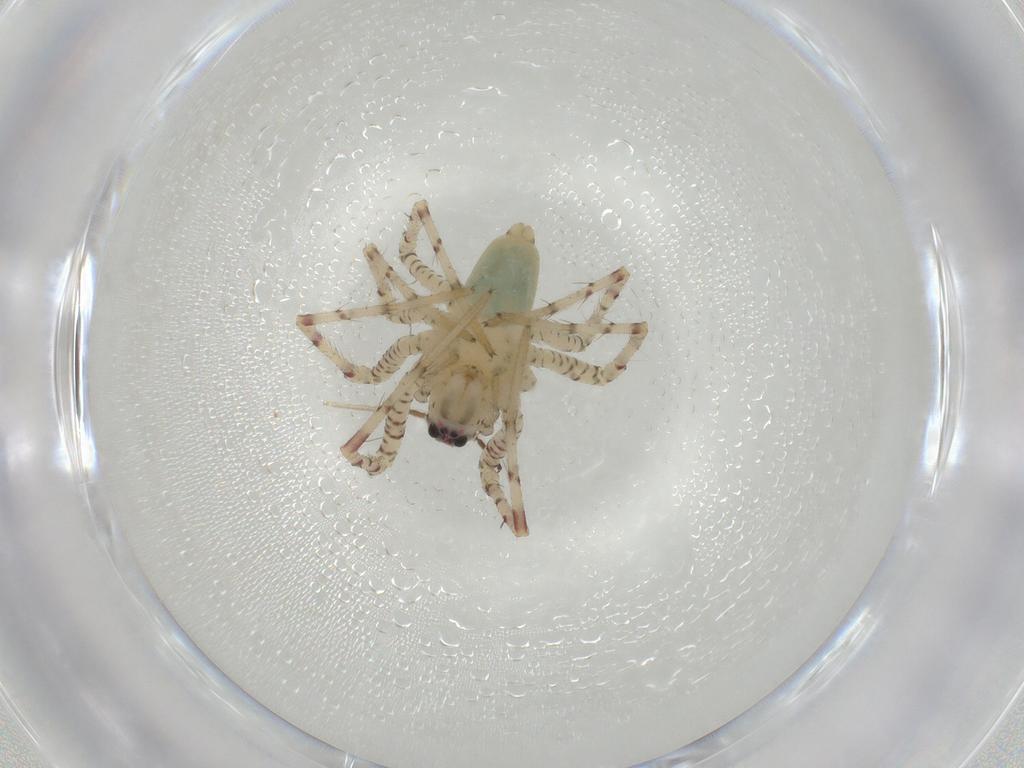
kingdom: Animalia
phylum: Arthropoda
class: Arachnida
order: Araneae
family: Oxyopidae
